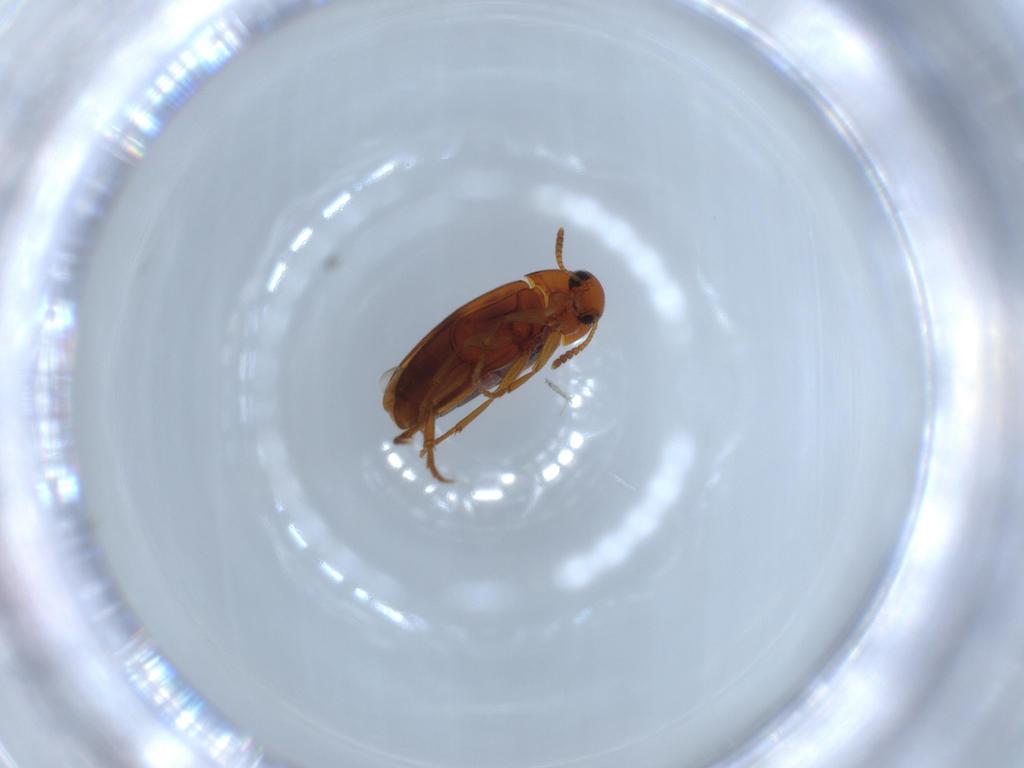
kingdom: Animalia
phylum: Arthropoda
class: Insecta
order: Coleoptera
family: Scraptiidae
